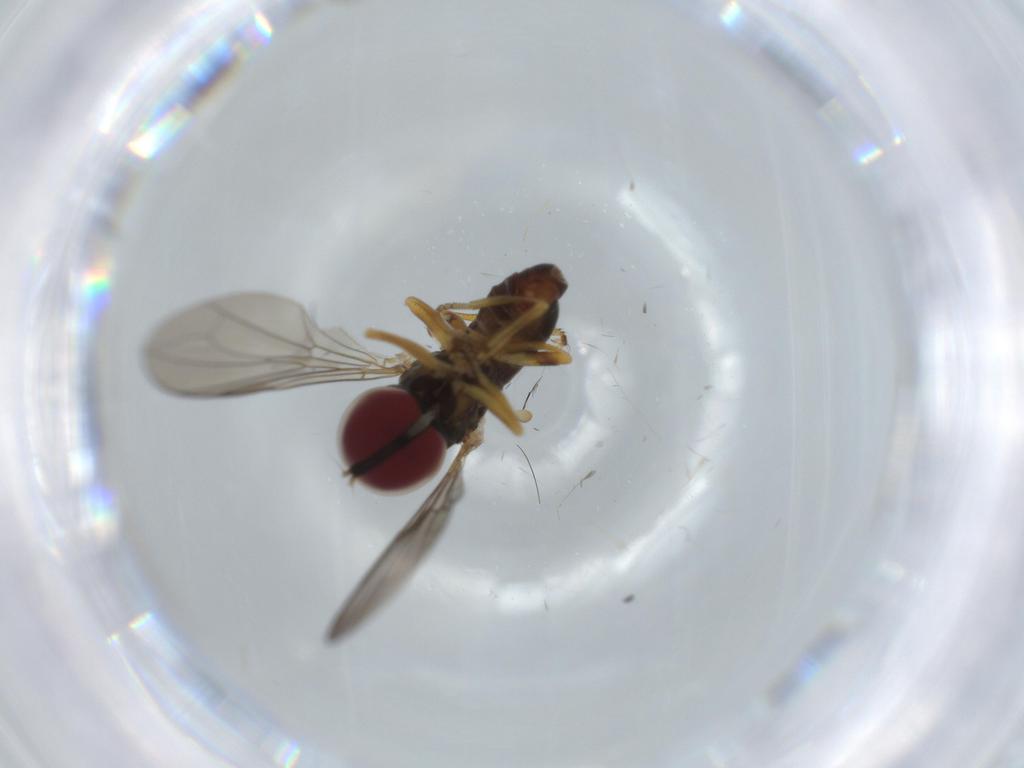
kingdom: Animalia
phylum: Arthropoda
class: Insecta
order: Diptera
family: Pipunculidae
